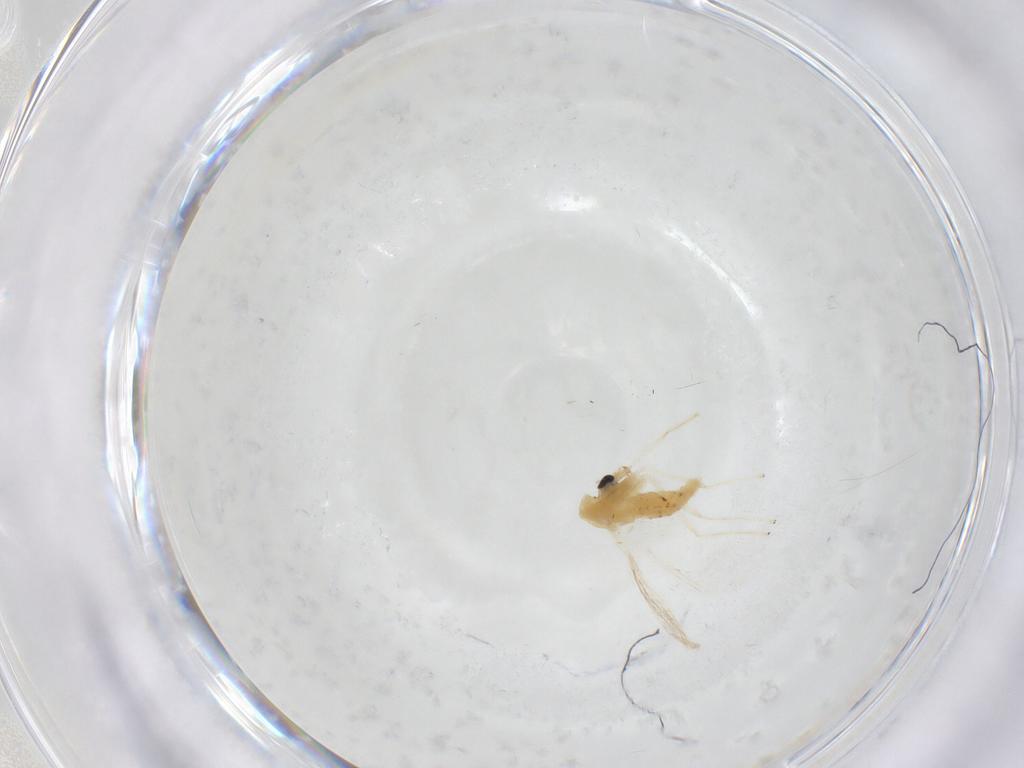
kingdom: Animalia
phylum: Arthropoda
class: Insecta
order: Diptera
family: Chironomidae
